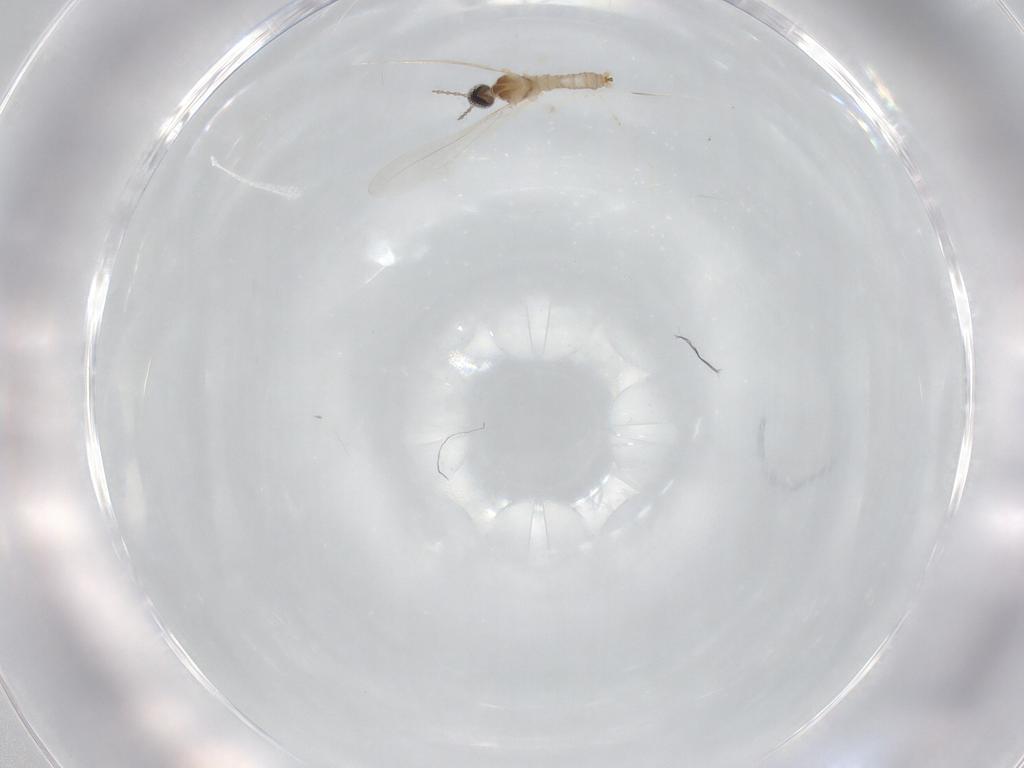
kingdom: Animalia
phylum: Arthropoda
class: Insecta
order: Diptera
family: Cecidomyiidae
